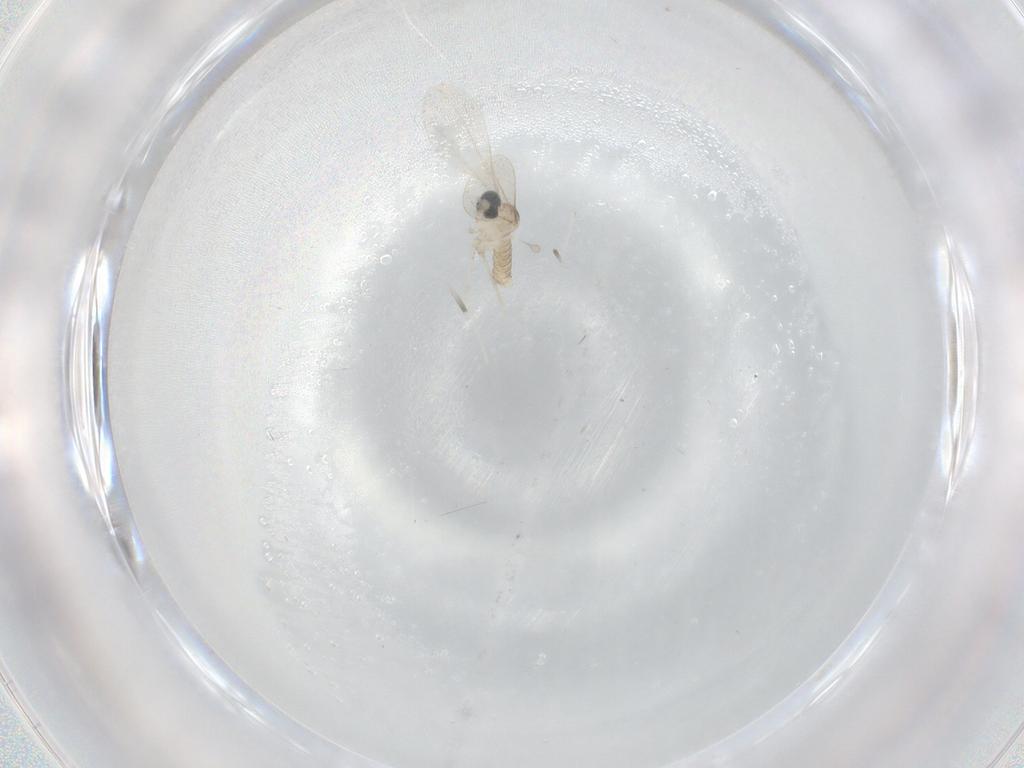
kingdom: Animalia
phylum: Arthropoda
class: Insecta
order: Diptera
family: Cecidomyiidae
